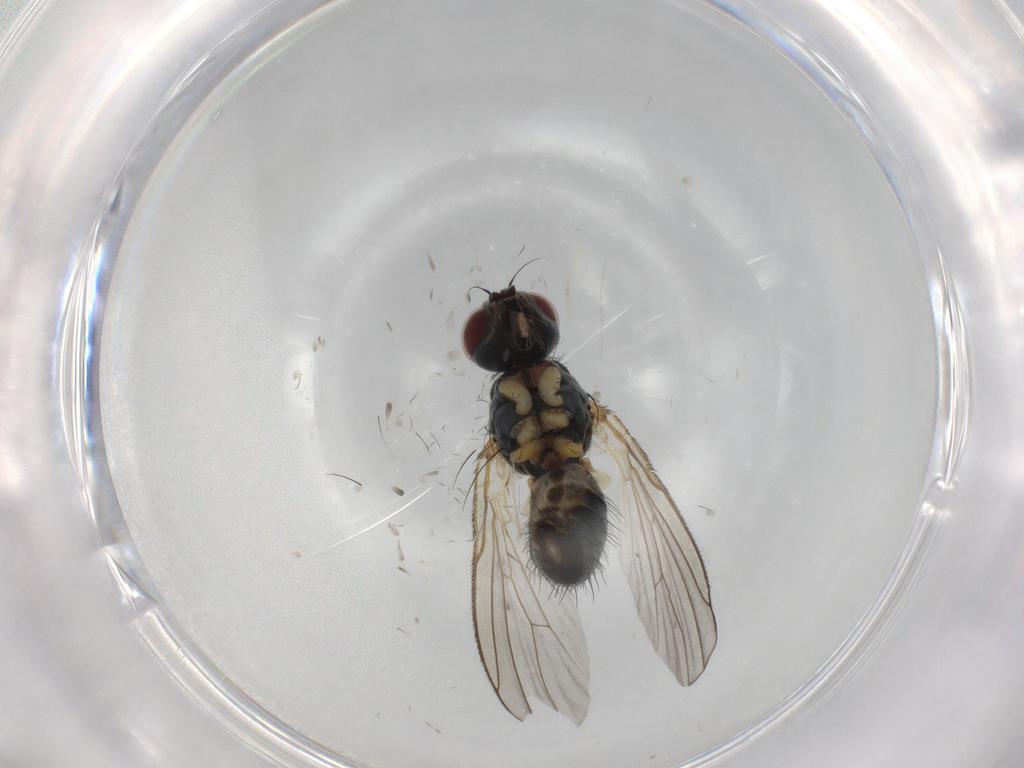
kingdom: Animalia
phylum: Arthropoda
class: Insecta
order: Diptera
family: Muscidae
